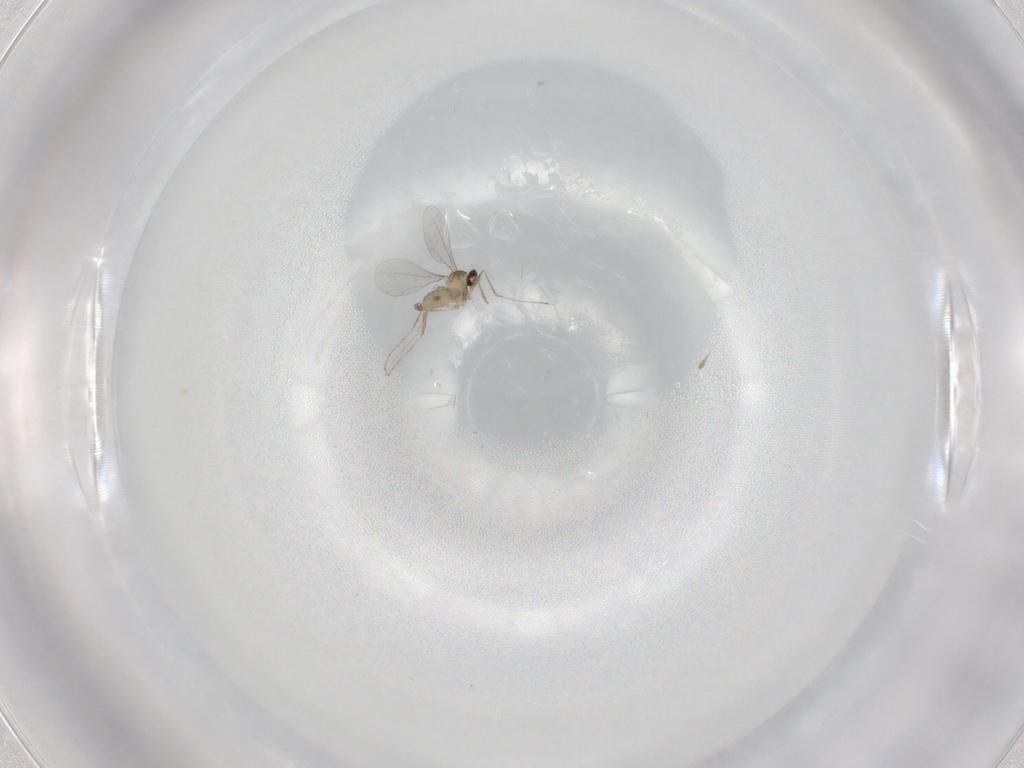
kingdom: Animalia
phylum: Arthropoda
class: Insecta
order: Diptera
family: Cecidomyiidae
